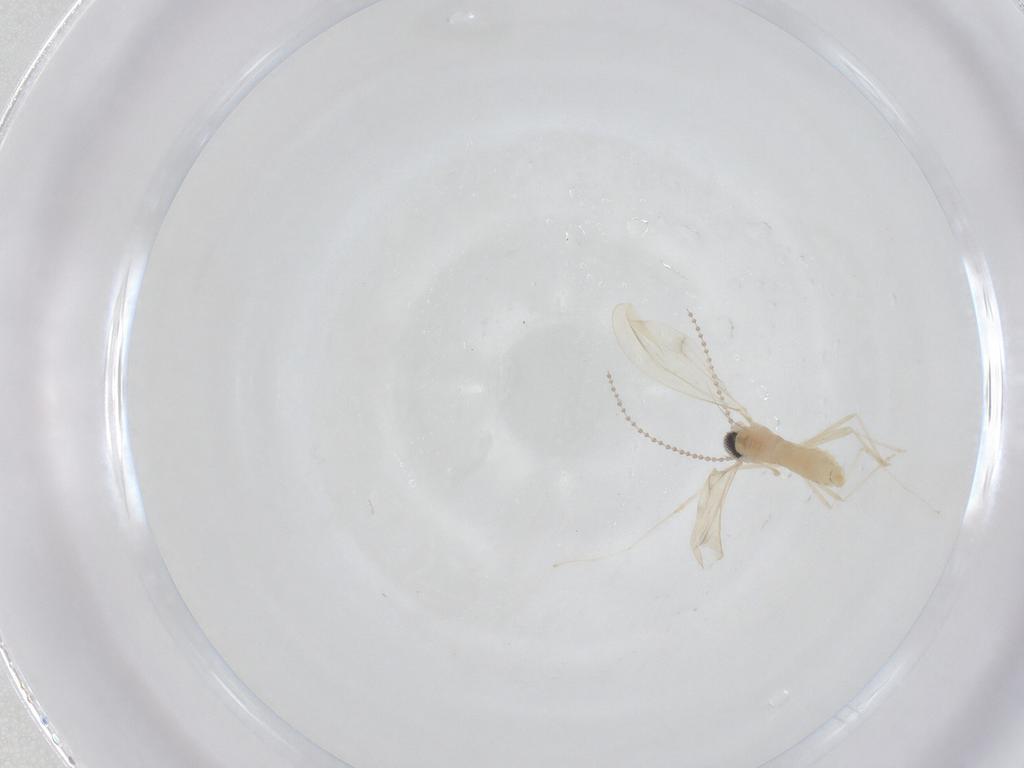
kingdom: Animalia
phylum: Arthropoda
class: Insecta
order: Diptera
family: Cecidomyiidae
